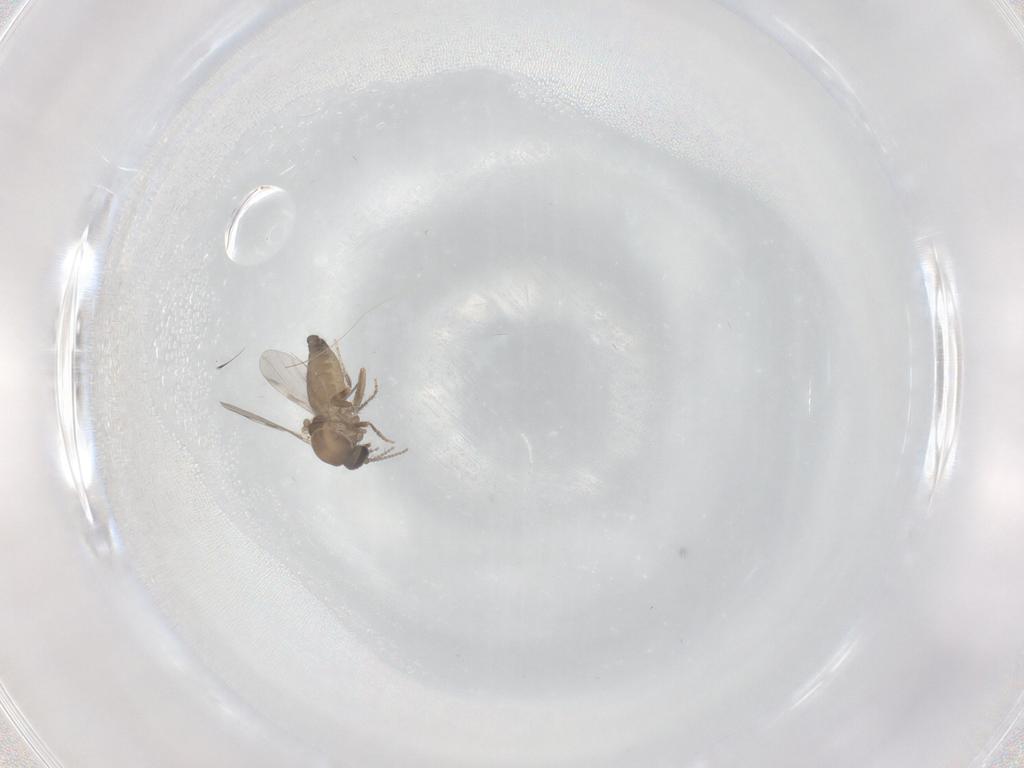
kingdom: Animalia
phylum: Arthropoda
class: Insecta
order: Diptera
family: Ceratopogonidae
